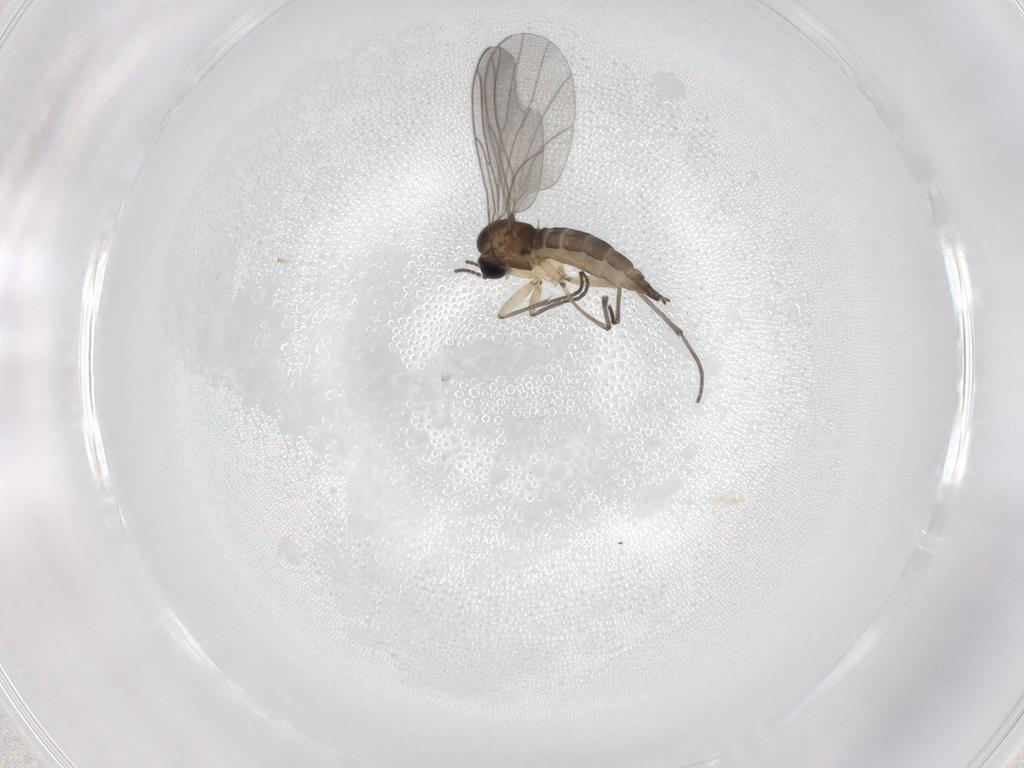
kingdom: Animalia
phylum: Arthropoda
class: Insecta
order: Diptera
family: Sciaridae
